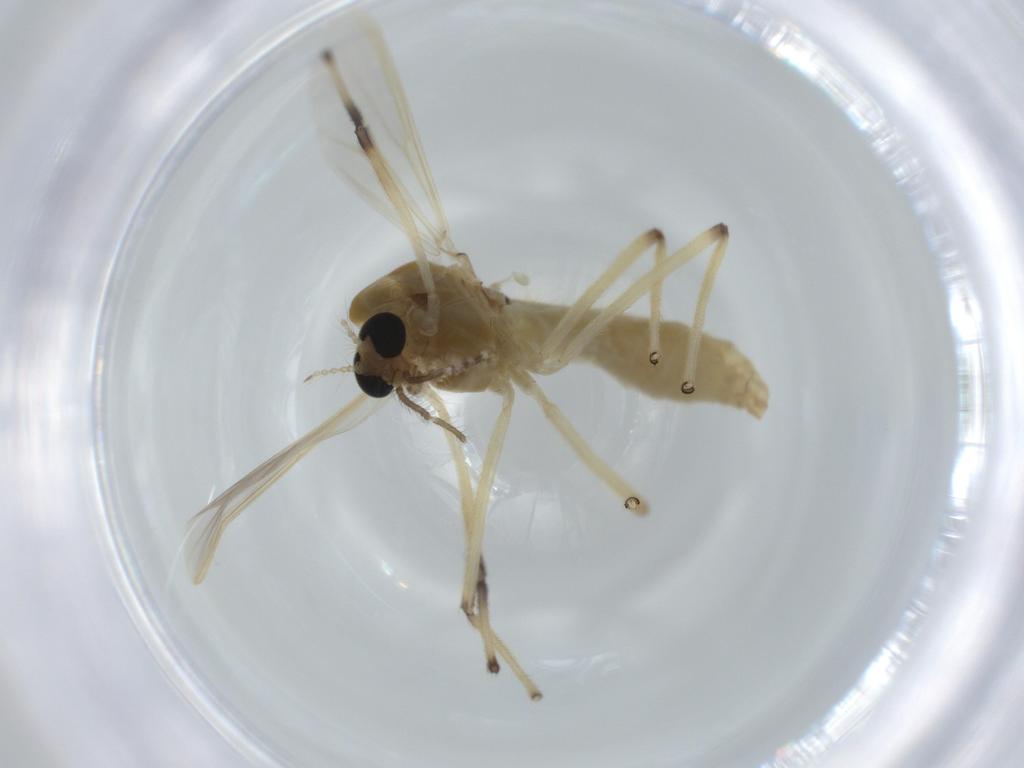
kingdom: Animalia
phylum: Arthropoda
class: Insecta
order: Diptera
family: Chironomidae
